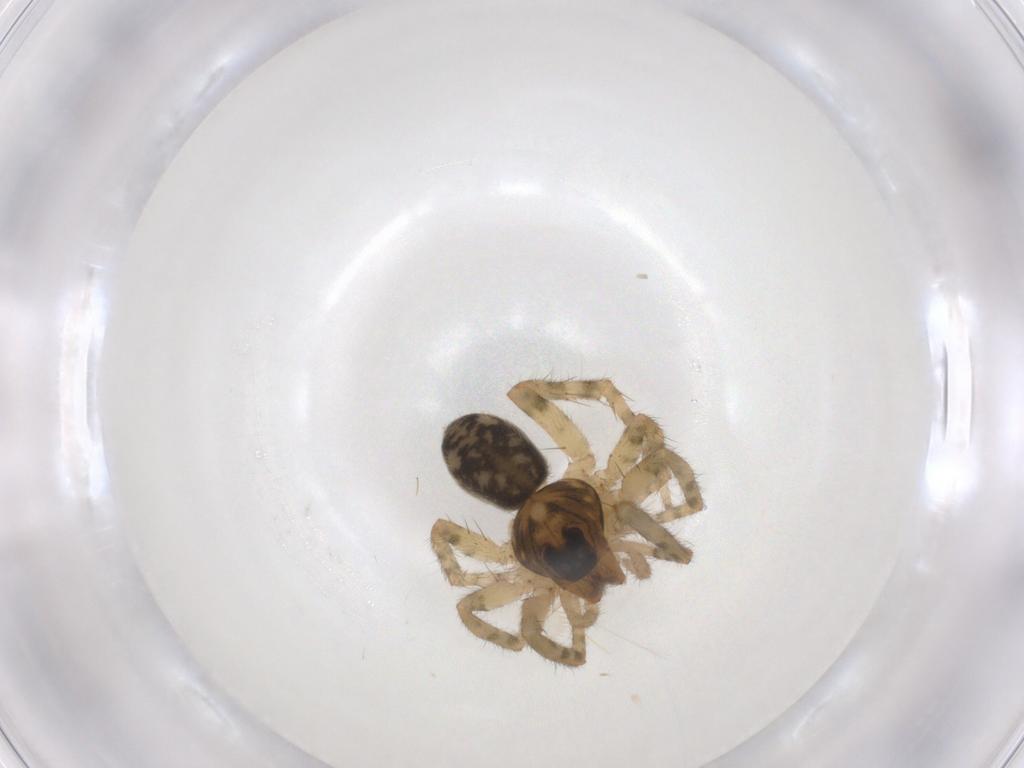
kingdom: Animalia
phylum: Arthropoda
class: Arachnida
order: Araneae
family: Lycosidae
